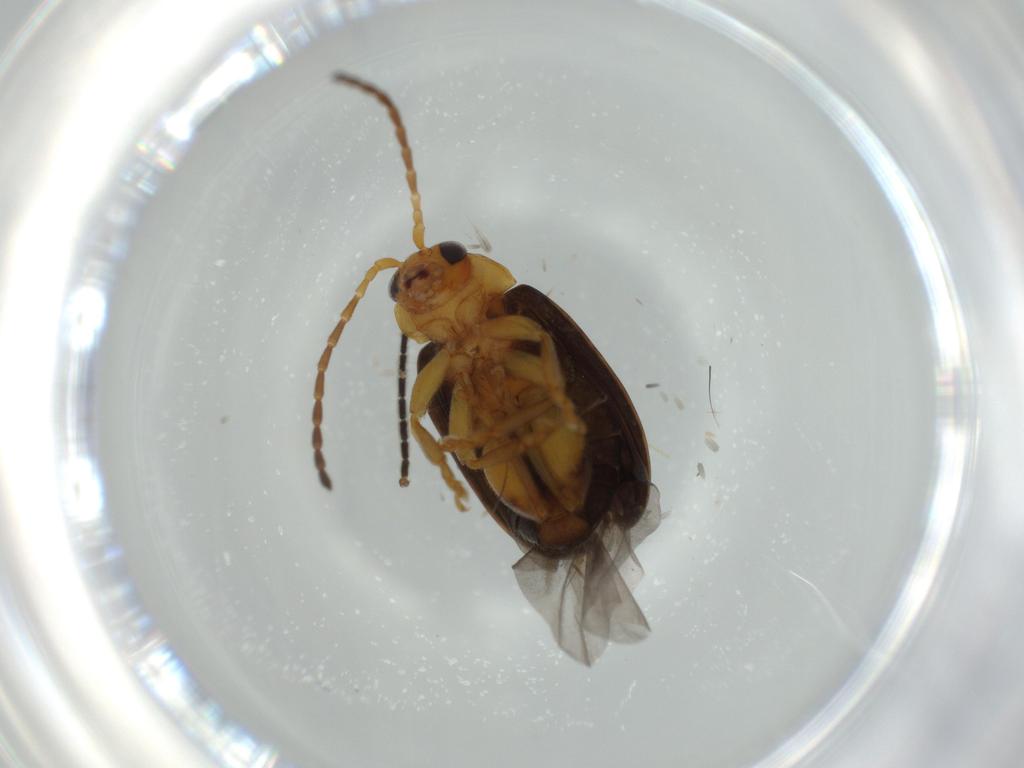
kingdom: Animalia
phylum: Arthropoda
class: Insecta
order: Coleoptera
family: Chrysomelidae
